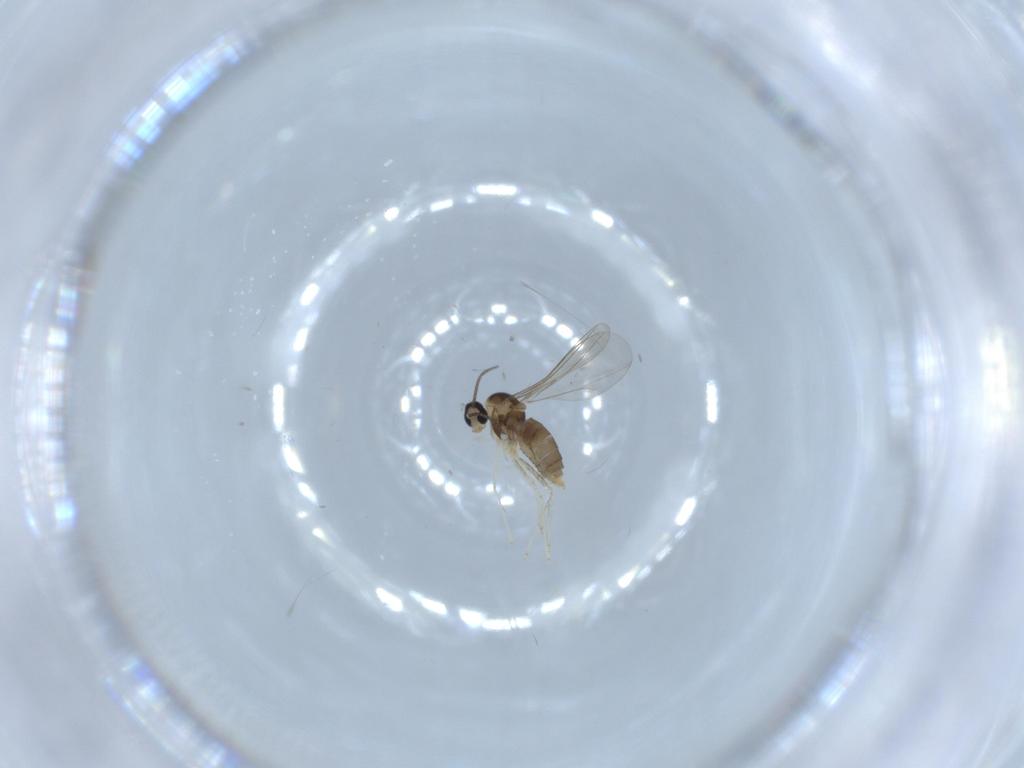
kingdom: Animalia
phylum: Arthropoda
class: Insecta
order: Diptera
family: Cecidomyiidae
